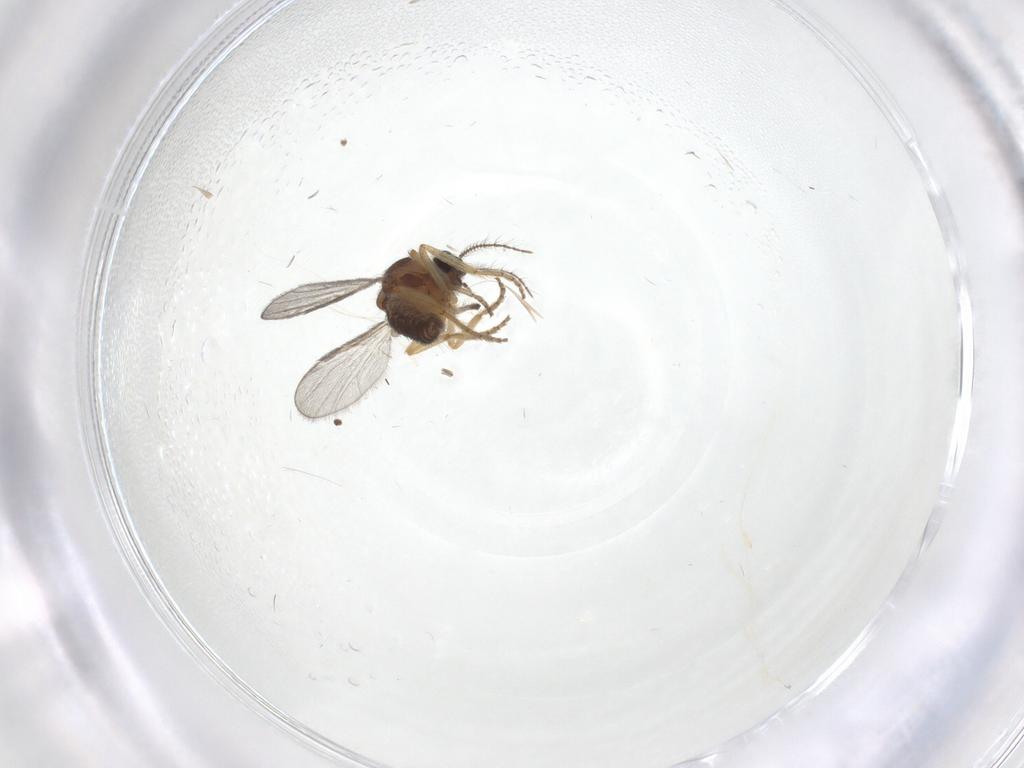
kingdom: Animalia
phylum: Arthropoda
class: Insecta
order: Diptera
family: Ceratopogonidae
